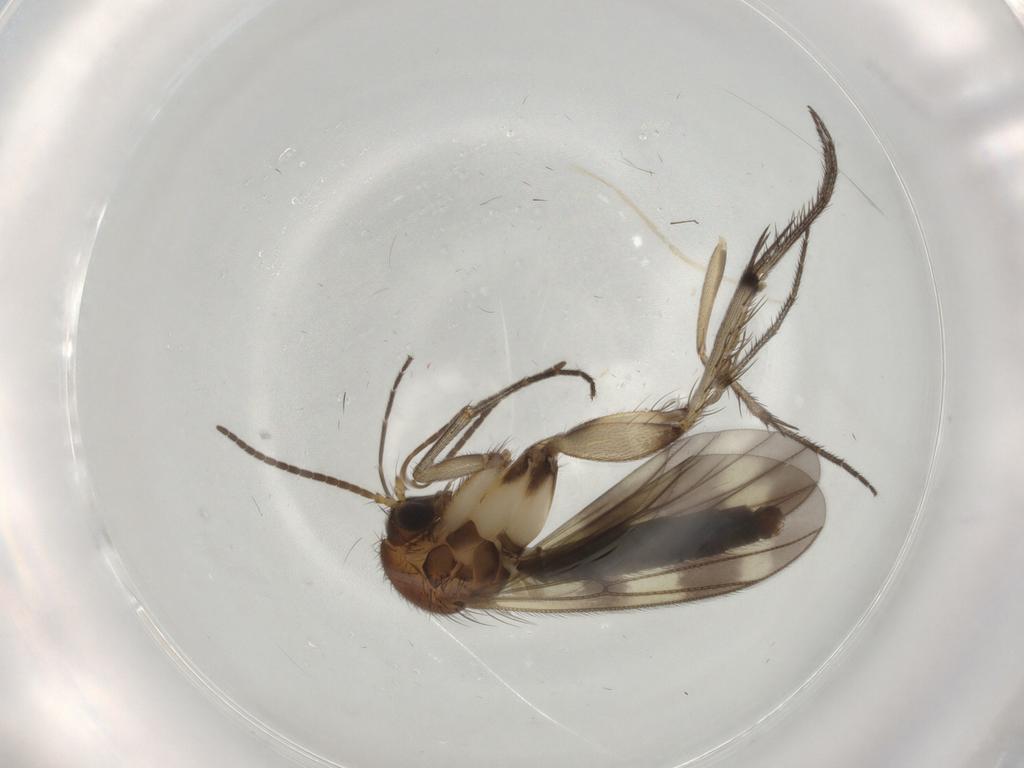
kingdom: Animalia
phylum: Arthropoda
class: Insecta
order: Diptera
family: Mycetophilidae
